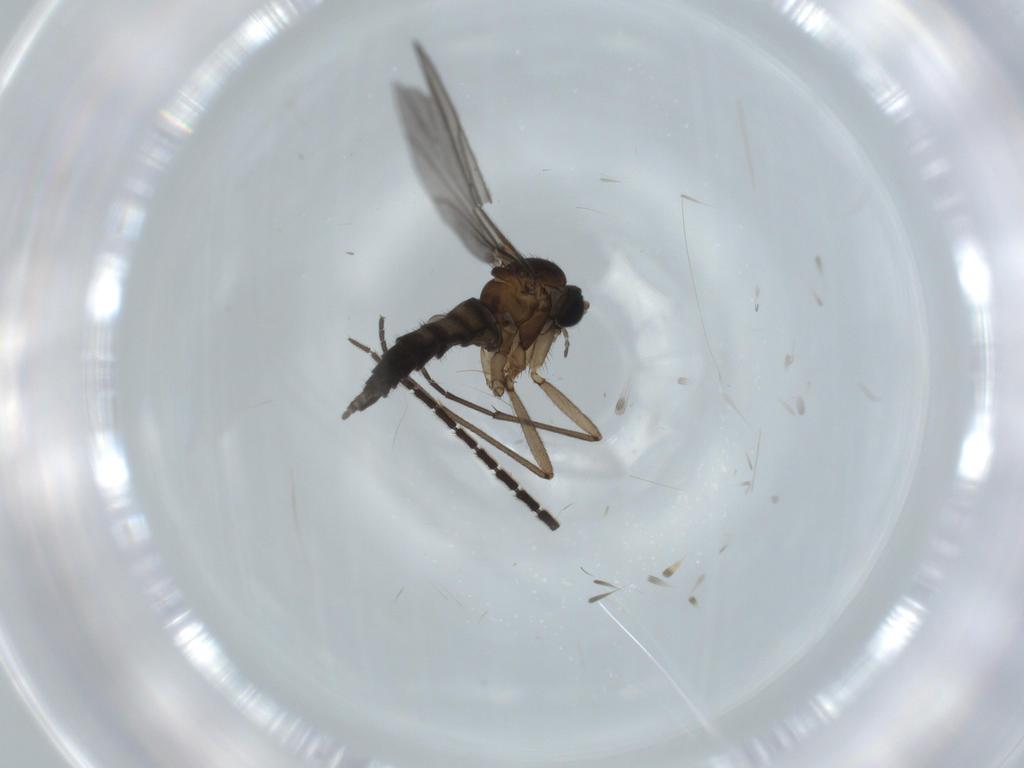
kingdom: Animalia
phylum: Arthropoda
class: Insecta
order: Diptera
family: Sciaridae
